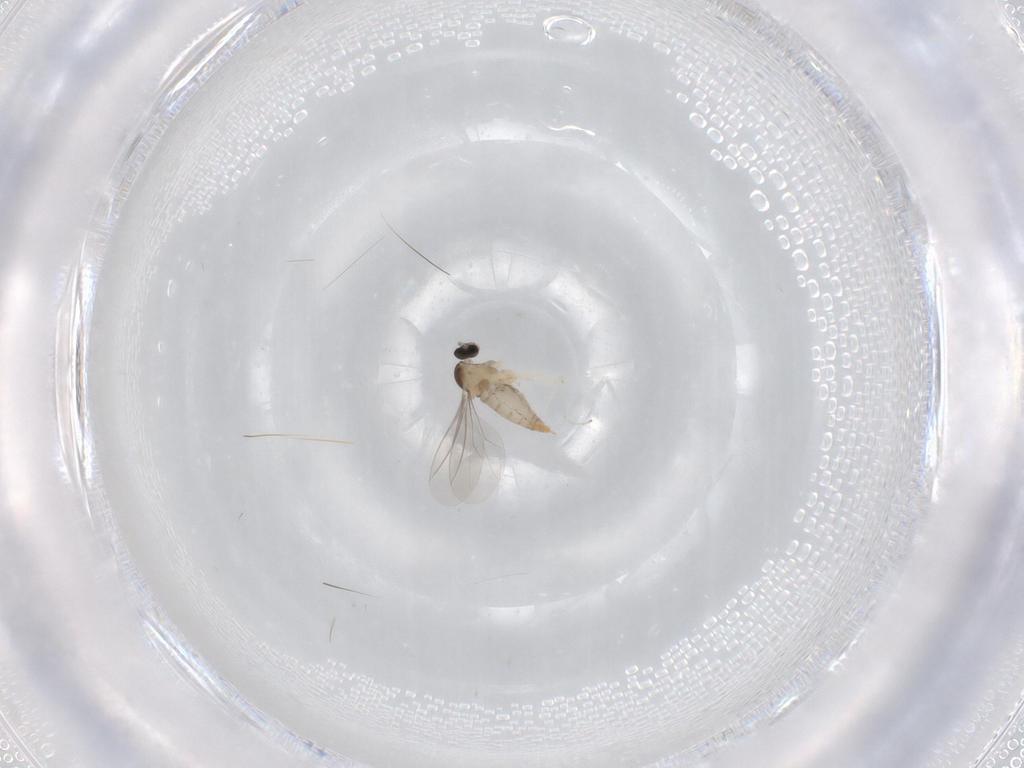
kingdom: Animalia
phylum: Arthropoda
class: Insecta
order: Diptera
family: Cecidomyiidae
